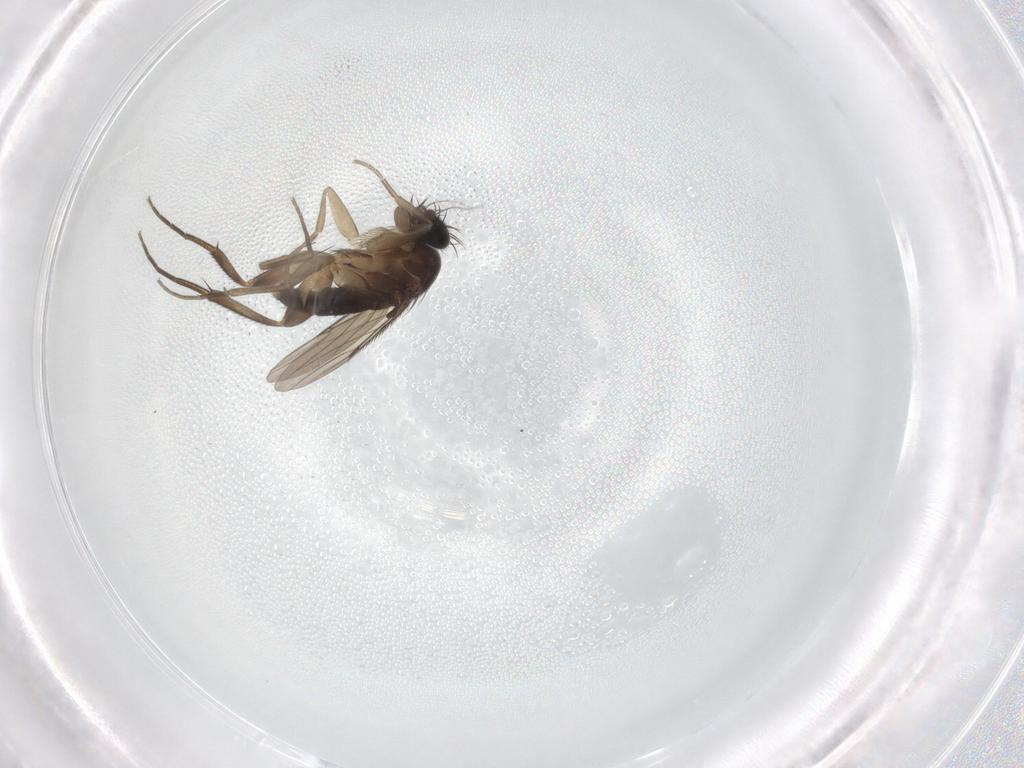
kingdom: Animalia
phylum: Arthropoda
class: Insecta
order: Diptera
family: Phoridae
